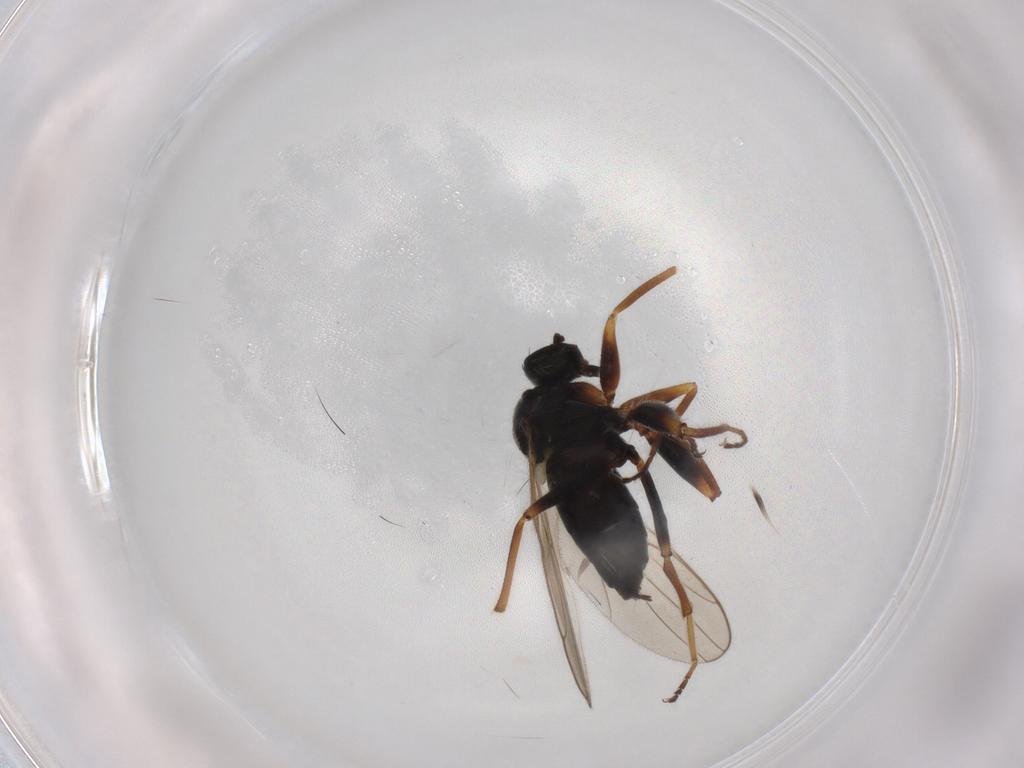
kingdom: Animalia
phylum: Arthropoda
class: Insecta
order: Diptera
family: Chironomidae
